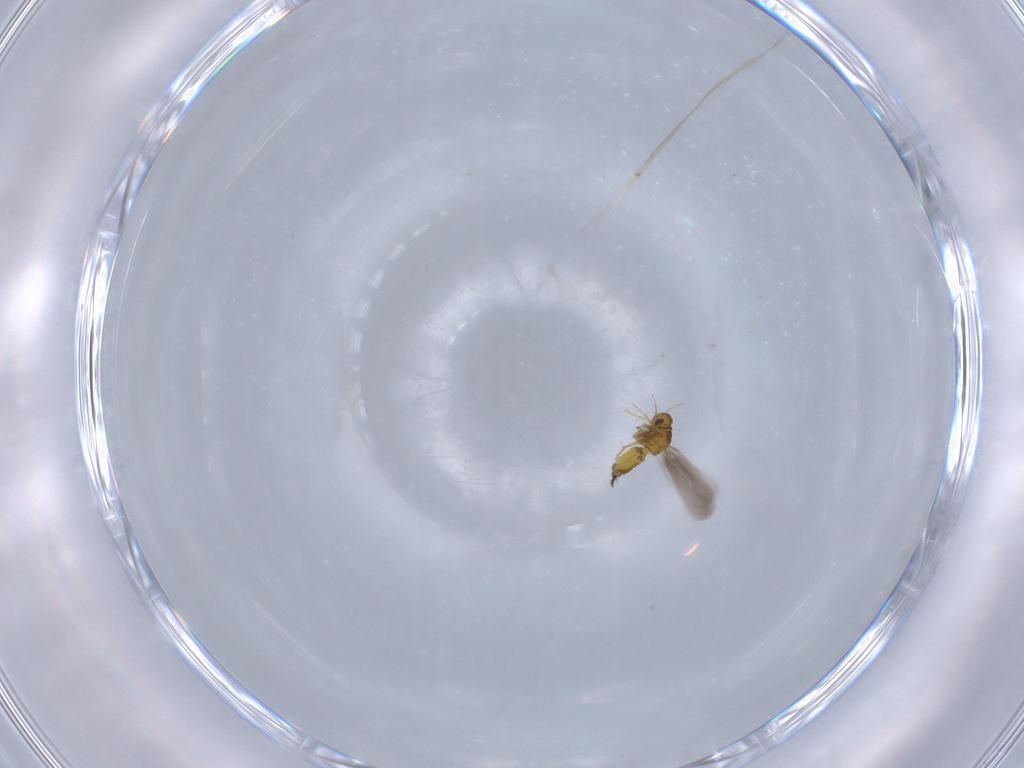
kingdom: Animalia
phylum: Arthropoda
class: Insecta
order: Hemiptera
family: Aleyrodidae
